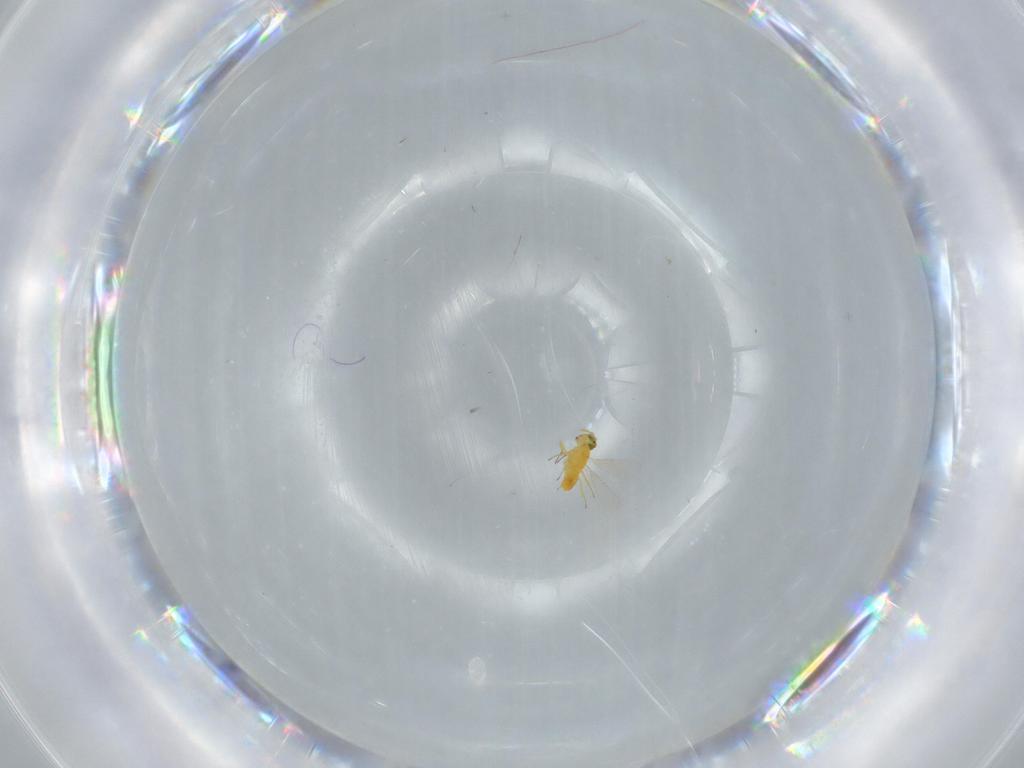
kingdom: Animalia
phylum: Arthropoda
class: Insecta
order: Hymenoptera
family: Aphelinidae
